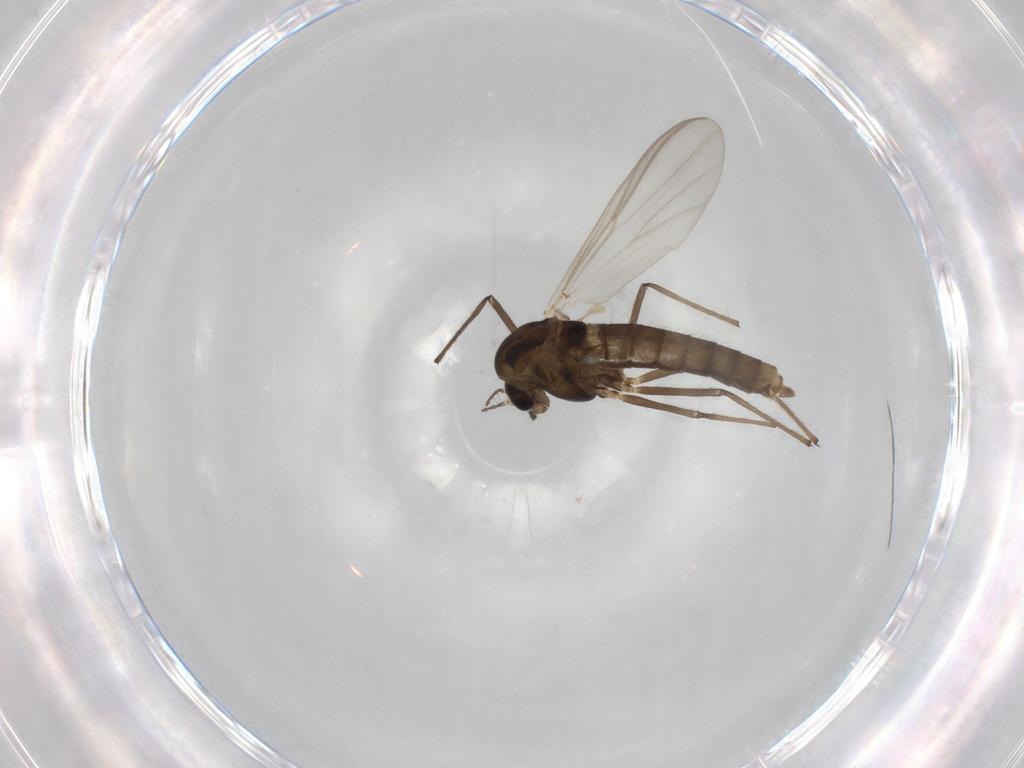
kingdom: Animalia
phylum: Arthropoda
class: Insecta
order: Diptera
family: Chironomidae
